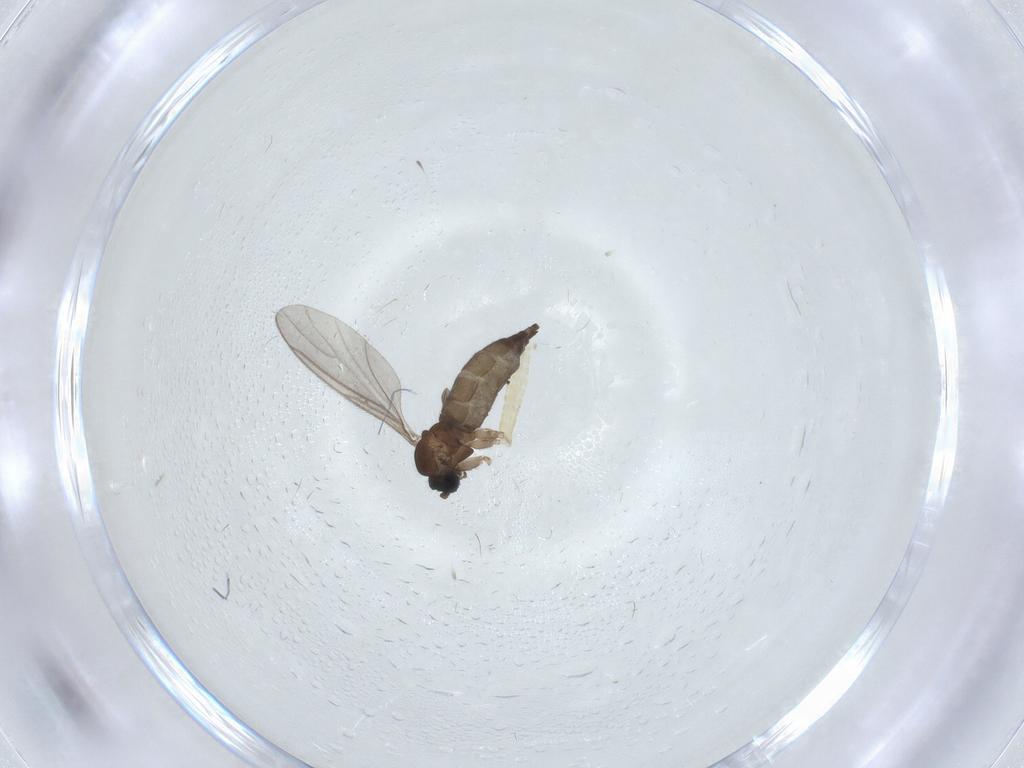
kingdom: Animalia
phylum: Arthropoda
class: Insecta
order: Diptera
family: Tachinidae
